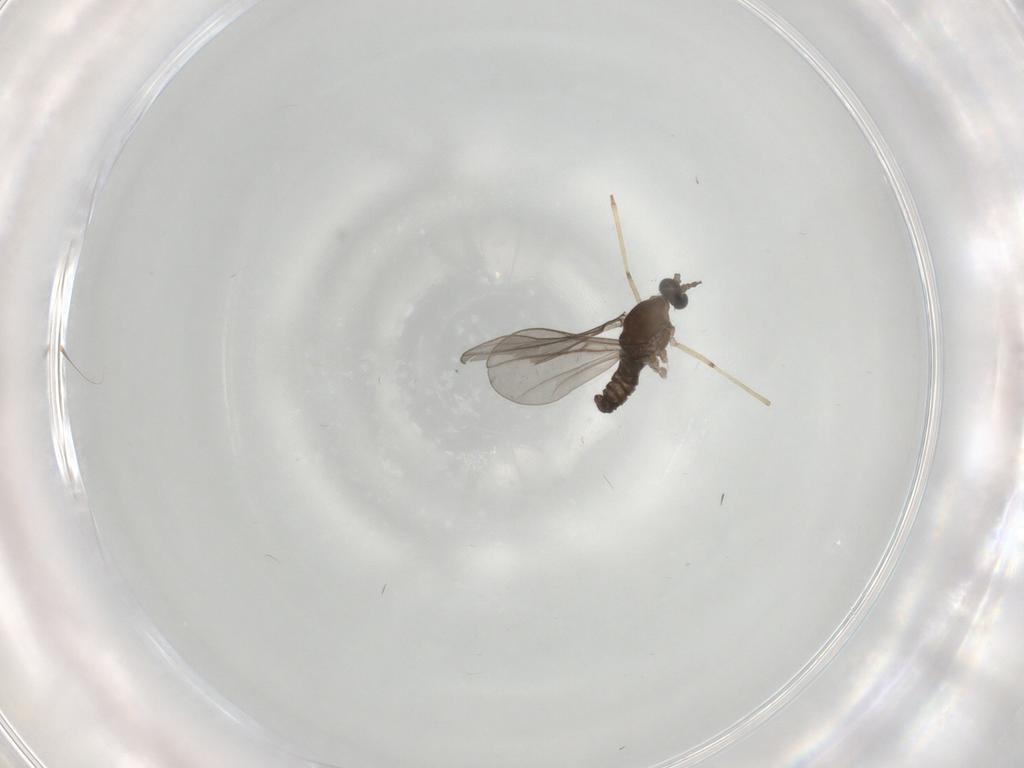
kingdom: Animalia
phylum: Arthropoda
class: Insecta
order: Diptera
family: Cecidomyiidae
